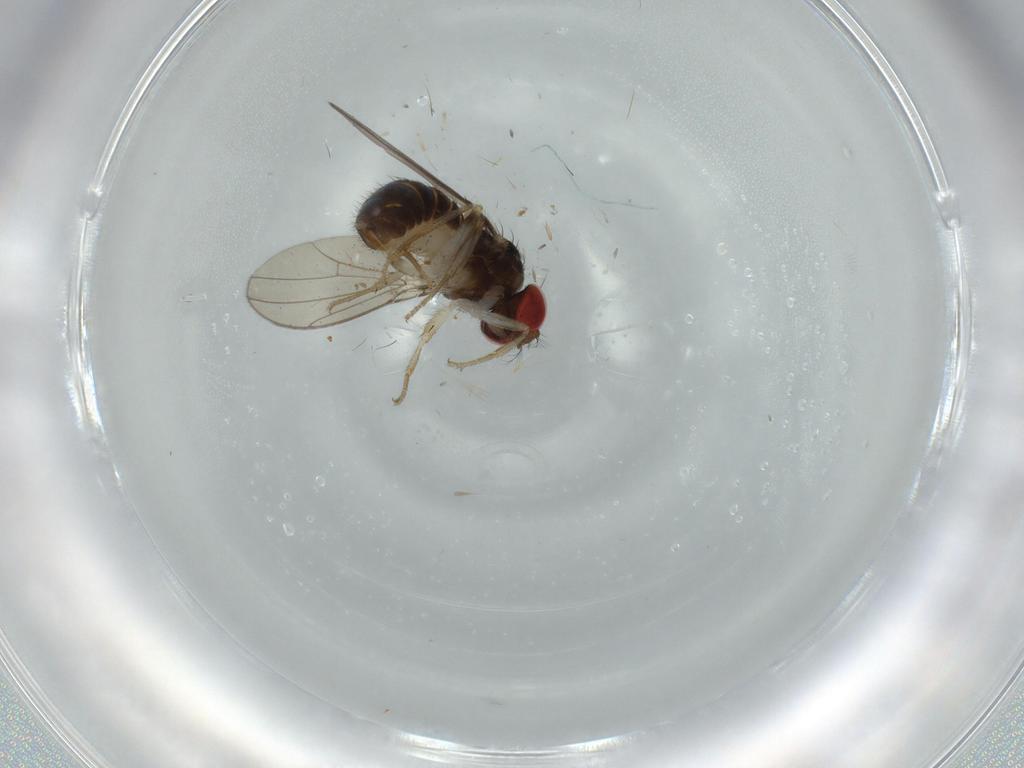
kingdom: Animalia
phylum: Arthropoda
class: Insecta
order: Diptera
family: Drosophilidae
